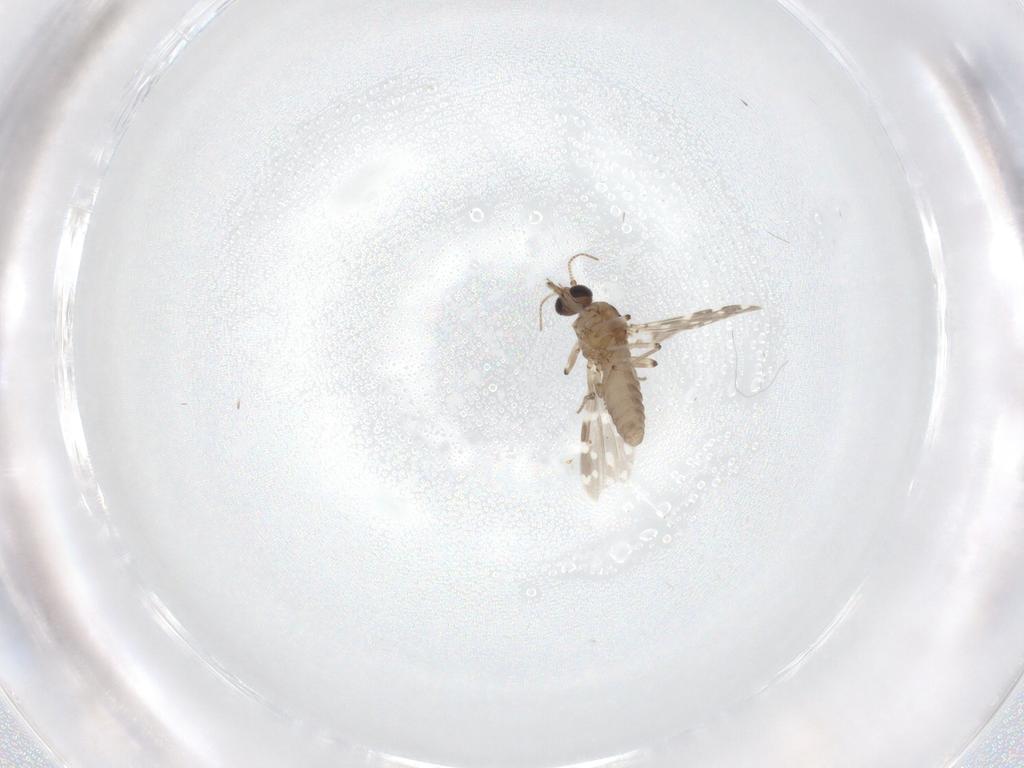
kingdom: Animalia
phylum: Arthropoda
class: Insecta
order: Diptera
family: Ceratopogonidae
